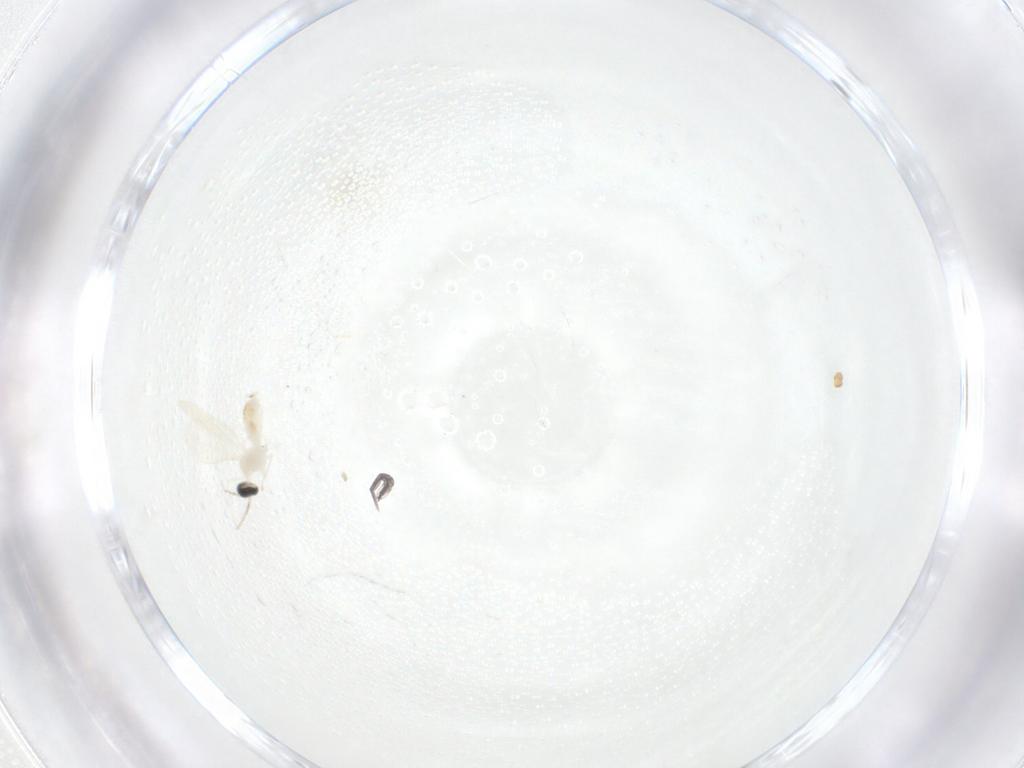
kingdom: Animalia
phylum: Arthropoda
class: Insecta
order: Diptera
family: Cecidomyiidae
